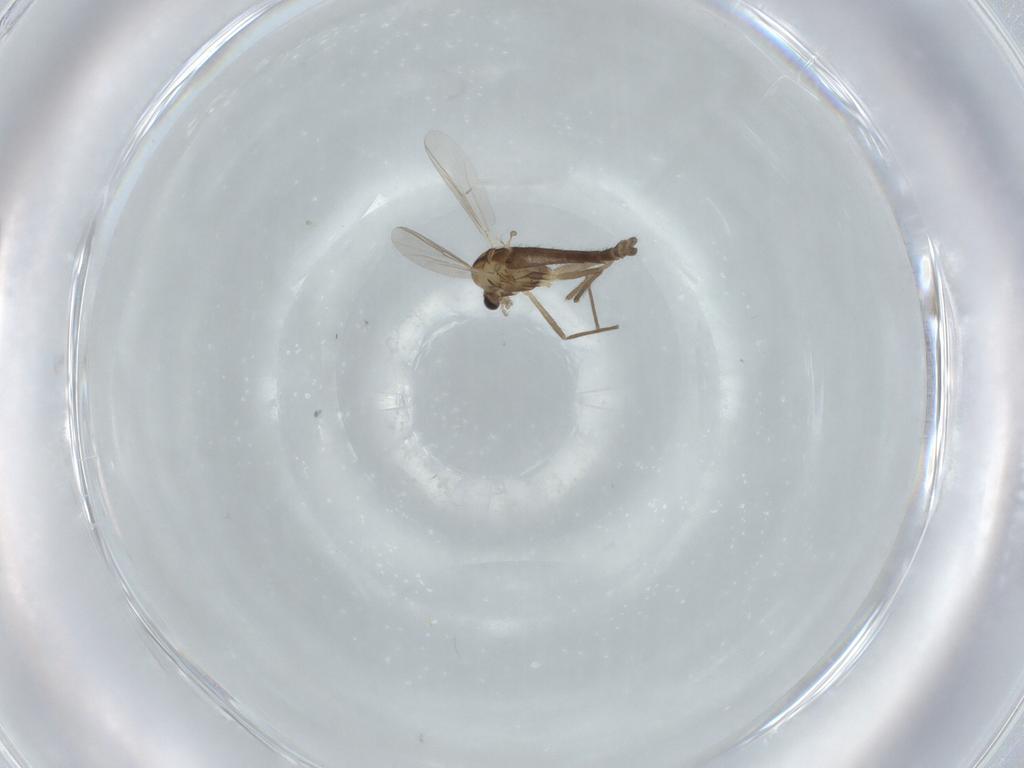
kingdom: Animalia
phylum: Arthropoda
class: Insecta
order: Diptera
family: Chironomidae
